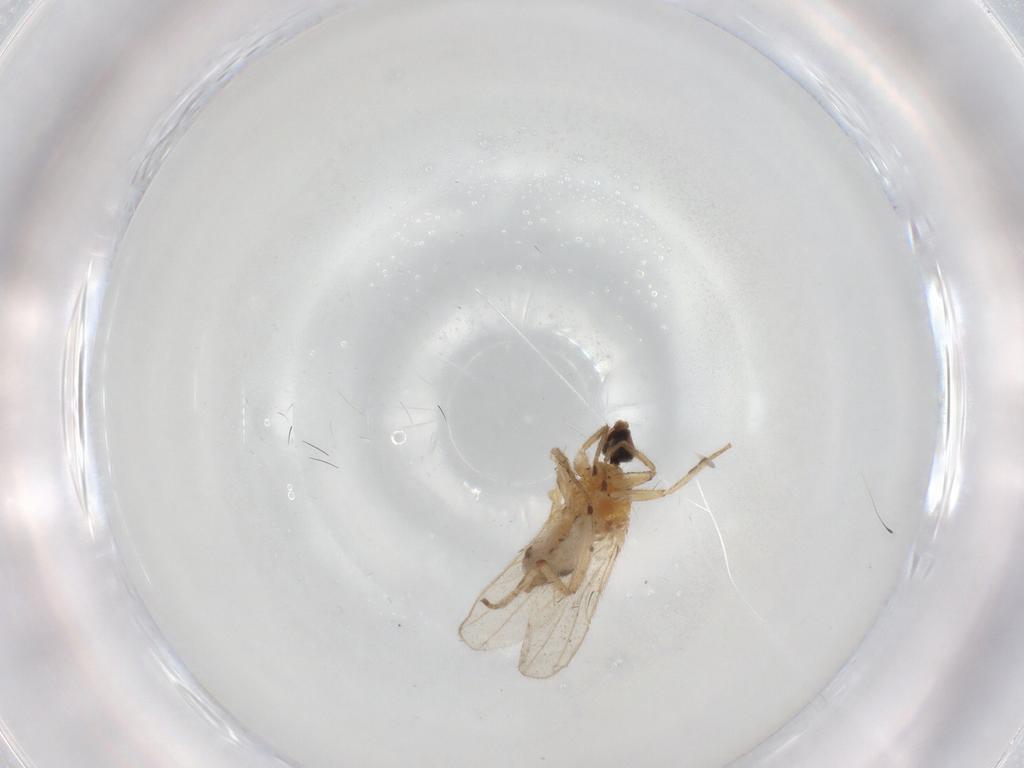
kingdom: Animalia
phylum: Arthropoda
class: Insecta
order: Diptera
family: Hybotidae
